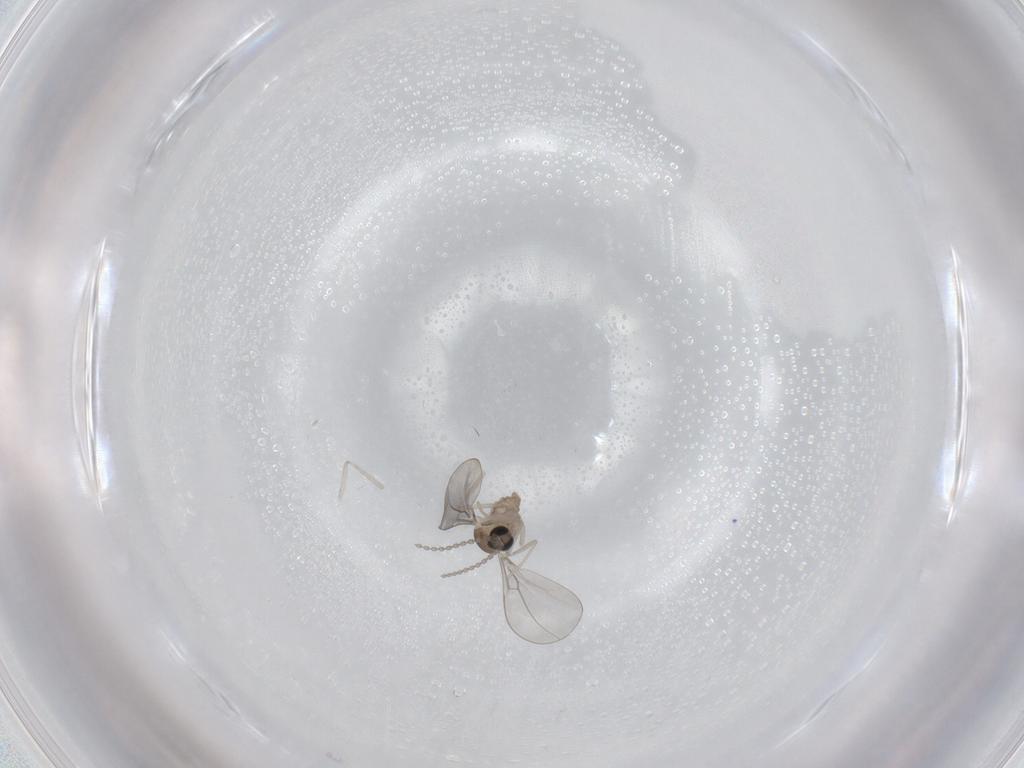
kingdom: Animalia
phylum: Arthropoda
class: Insecta
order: Diptera
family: Cecidomyiidae
